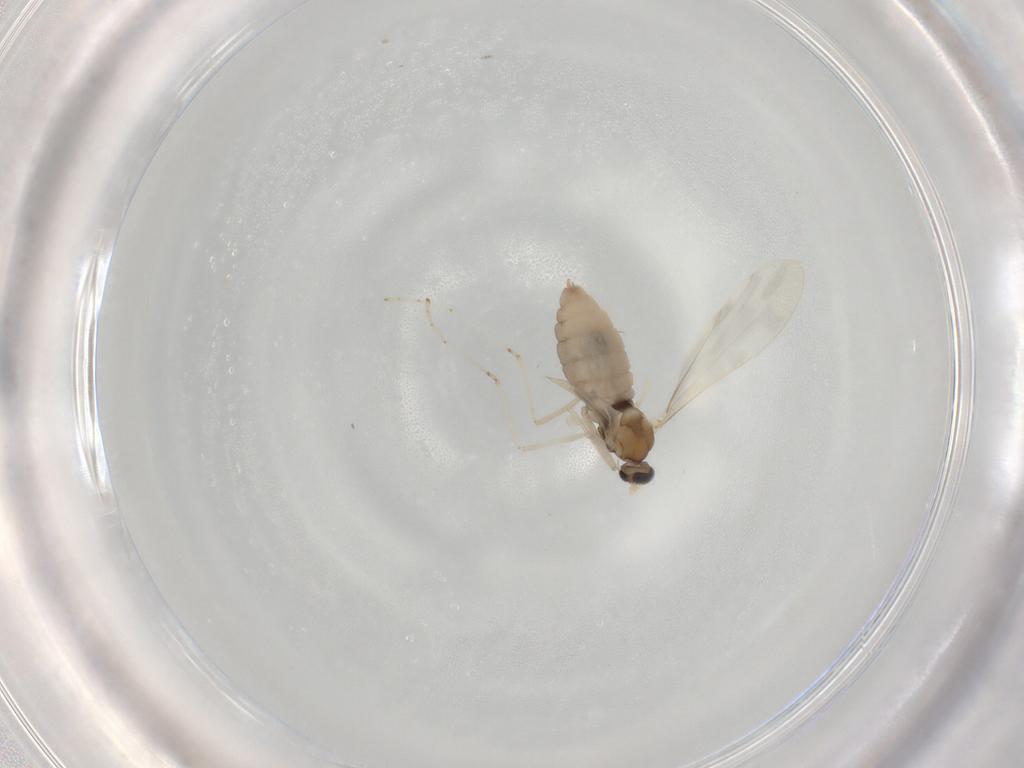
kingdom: Animalia
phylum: Arthropoda
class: Insecta
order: Diptera
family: Cecidomyiidae
